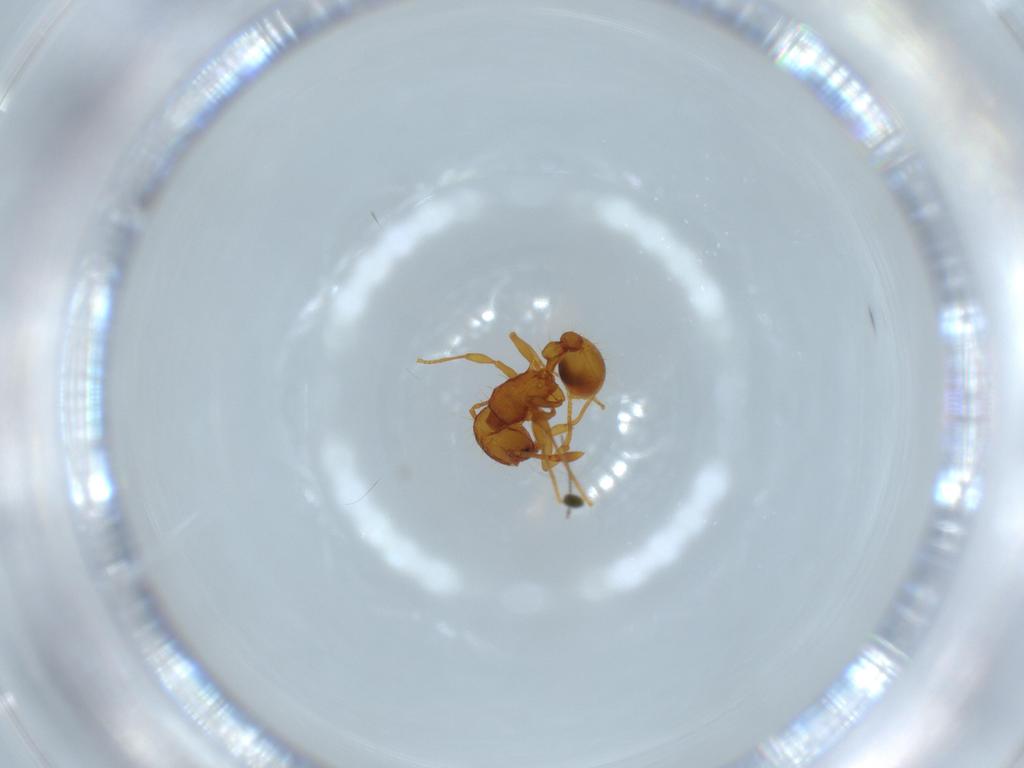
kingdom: Animalia
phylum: Arthropoda
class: Insecta
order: Hymenoptera
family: Formicidae
